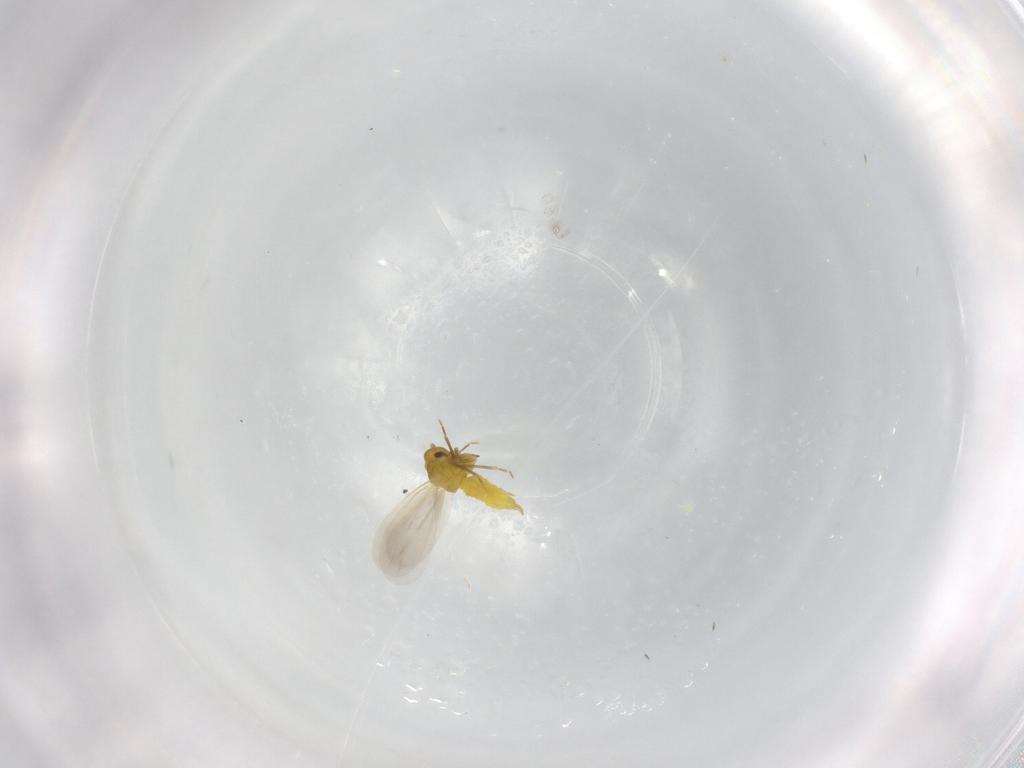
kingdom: Animalia
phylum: Arthropoda
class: Insecta
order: Hemiptera
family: Aleyrodidae
